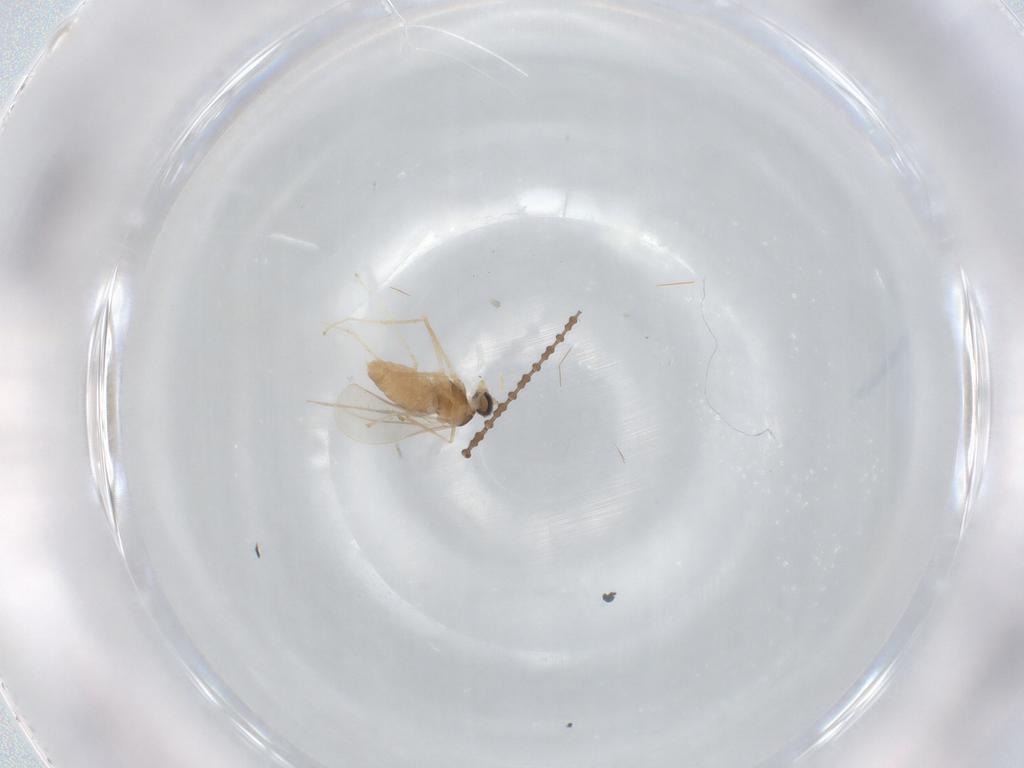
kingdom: Animalia
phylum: Arthropoda
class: Insecta
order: Diptera
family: Cecidomyiidae
